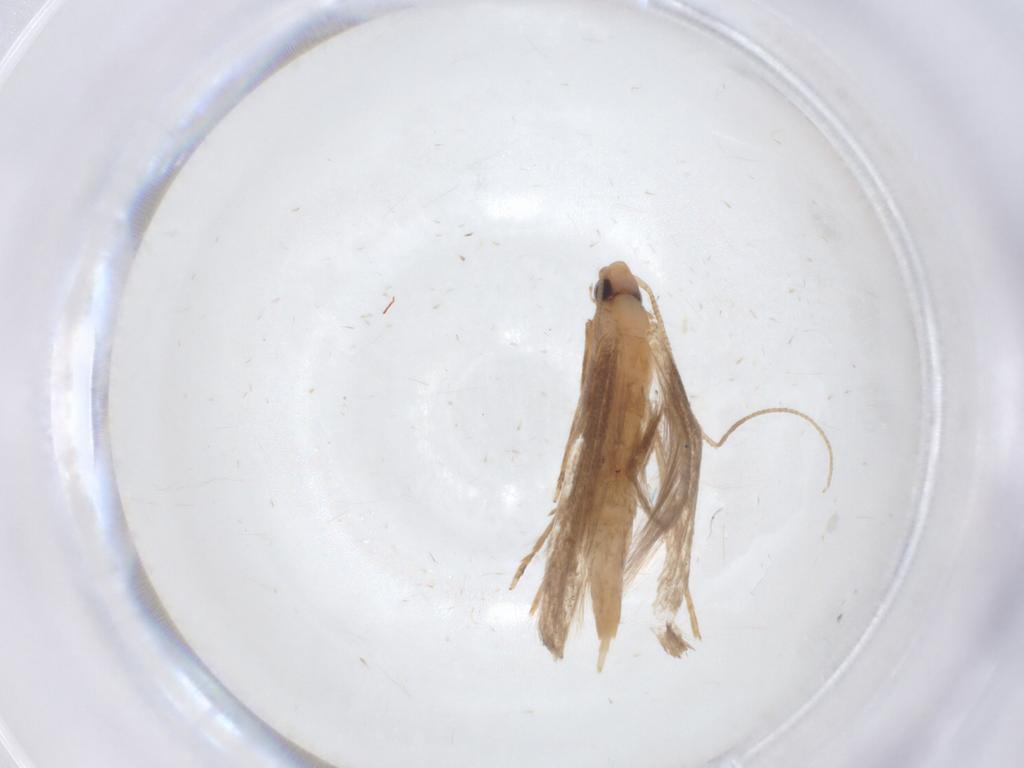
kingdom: Animalia
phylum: Arthropoda
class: Insecta
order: Lepidoptera
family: Tineidae
